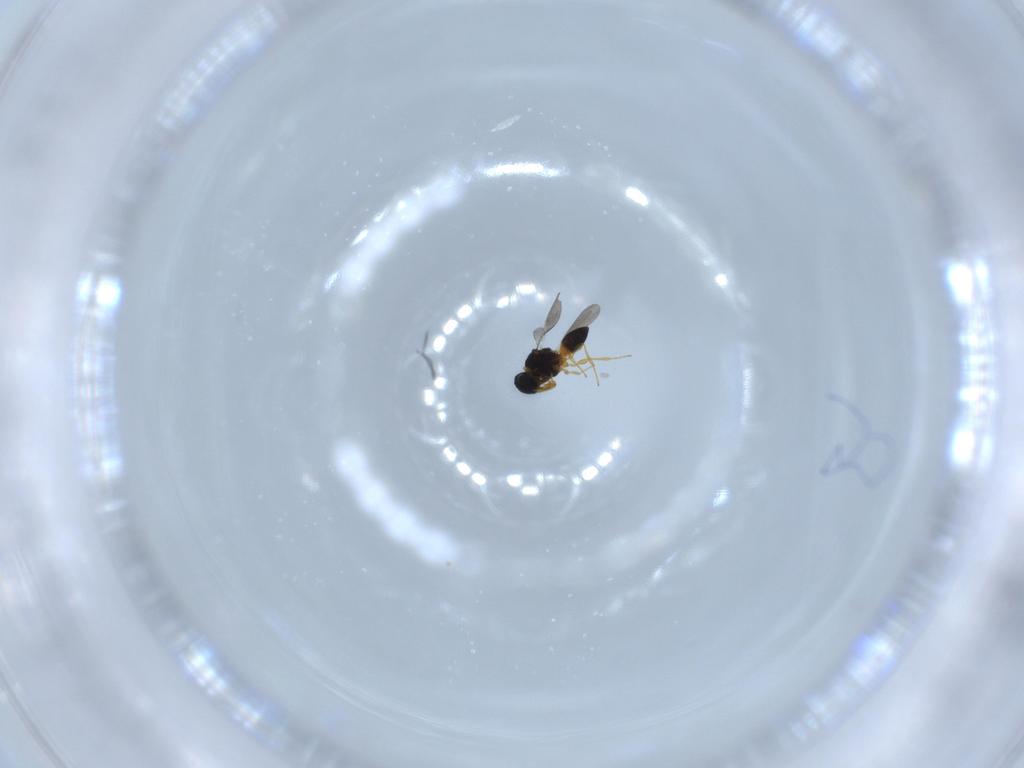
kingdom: Animalia
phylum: Arthropoda
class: Insecta
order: Hymenoptera
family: Platygastridae
